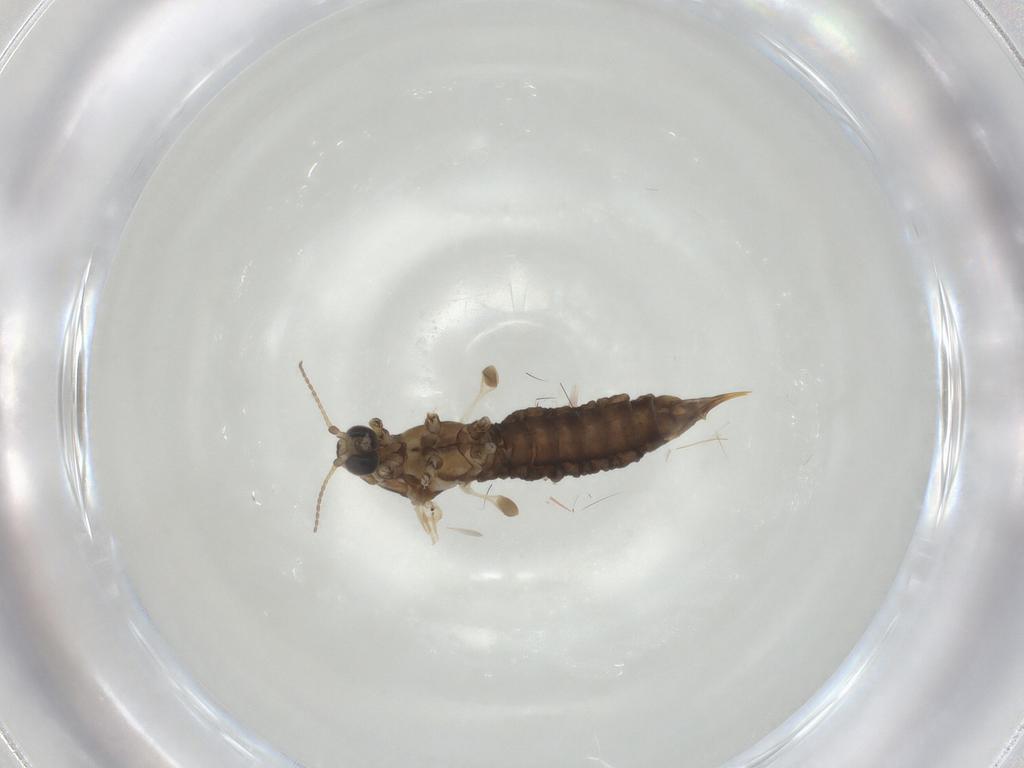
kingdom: Animalia
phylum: Arthropoda
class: Insecta
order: Diptera
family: Limoniidae
